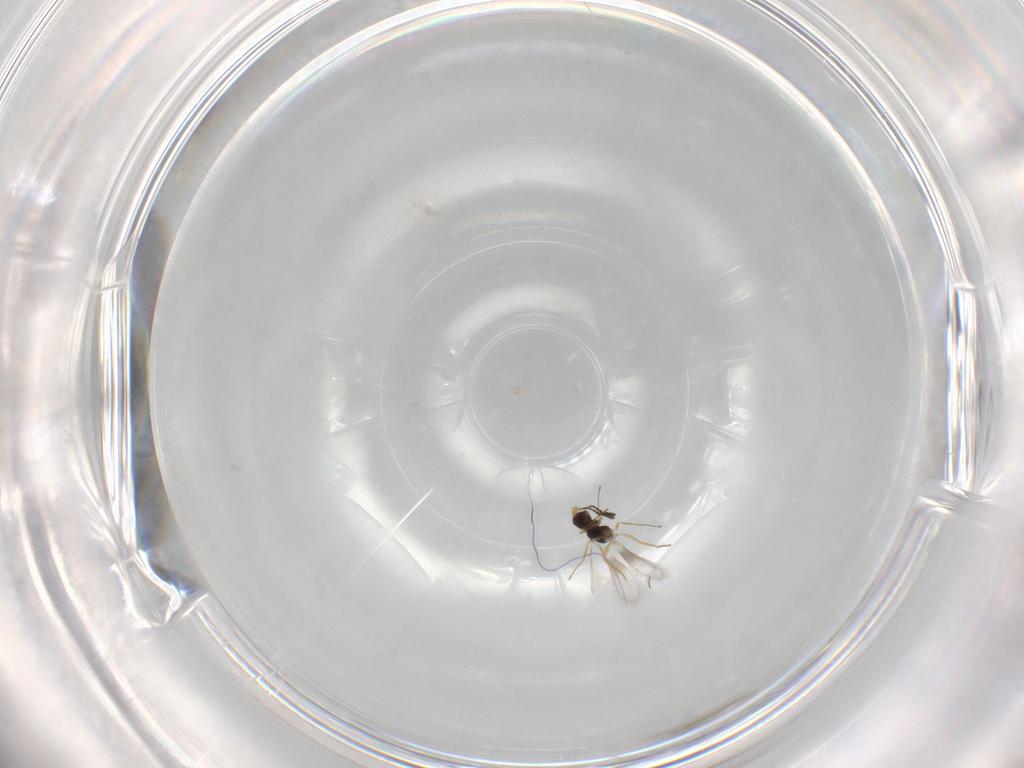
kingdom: Animalia
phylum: Arthropoda
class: Insecta
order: Hymenoptera
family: Mymaridae
